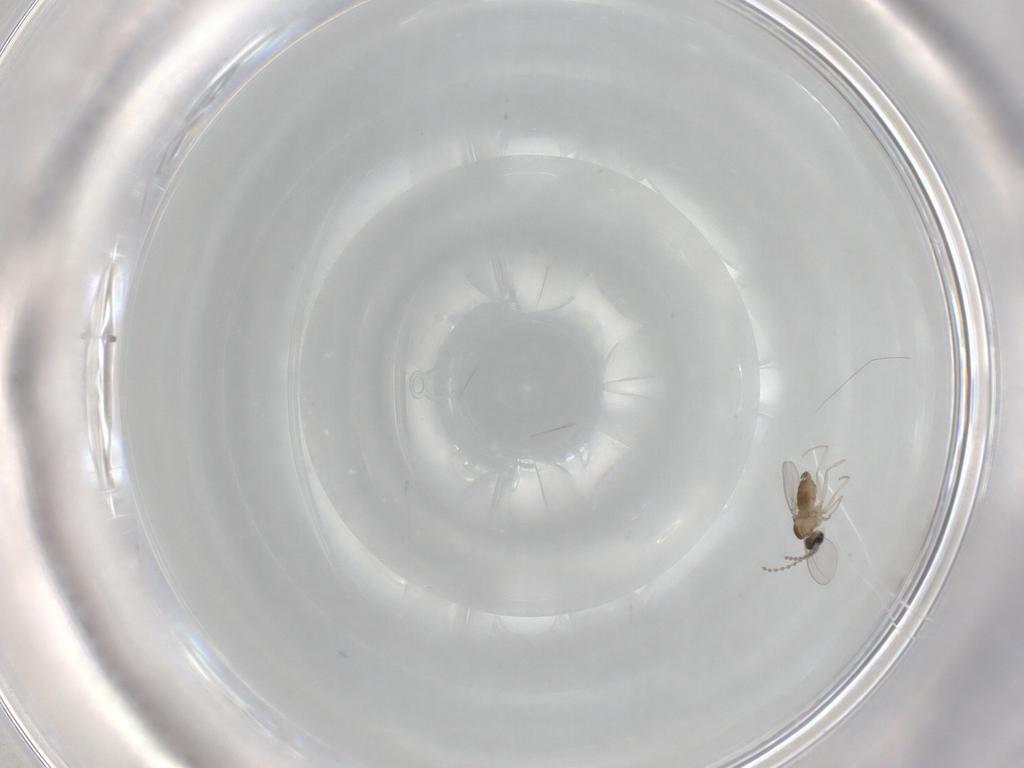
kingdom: Animalia
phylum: Arthropoda
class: Insecta
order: Diptera
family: Cecidomyiidae
